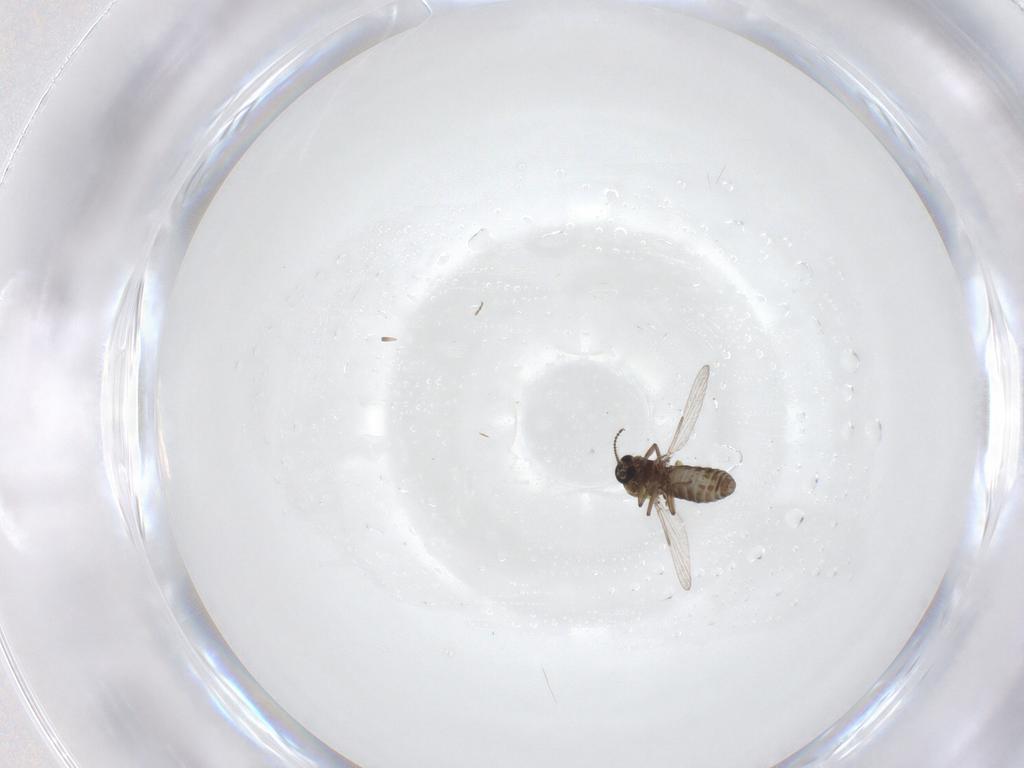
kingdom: Animalia
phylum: Arthropoda
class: Insecta
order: Diptera
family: Ceratopogonidae
